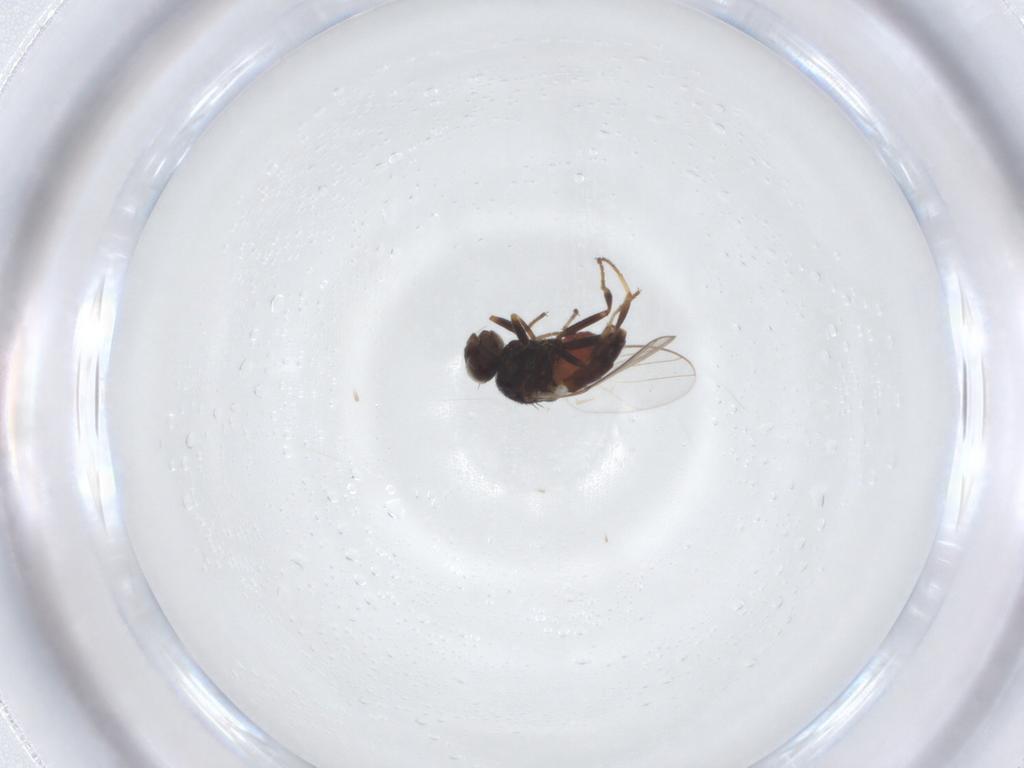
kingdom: Animalia
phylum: Arthropoda
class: Insecta
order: Diptera
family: Chloropidae
